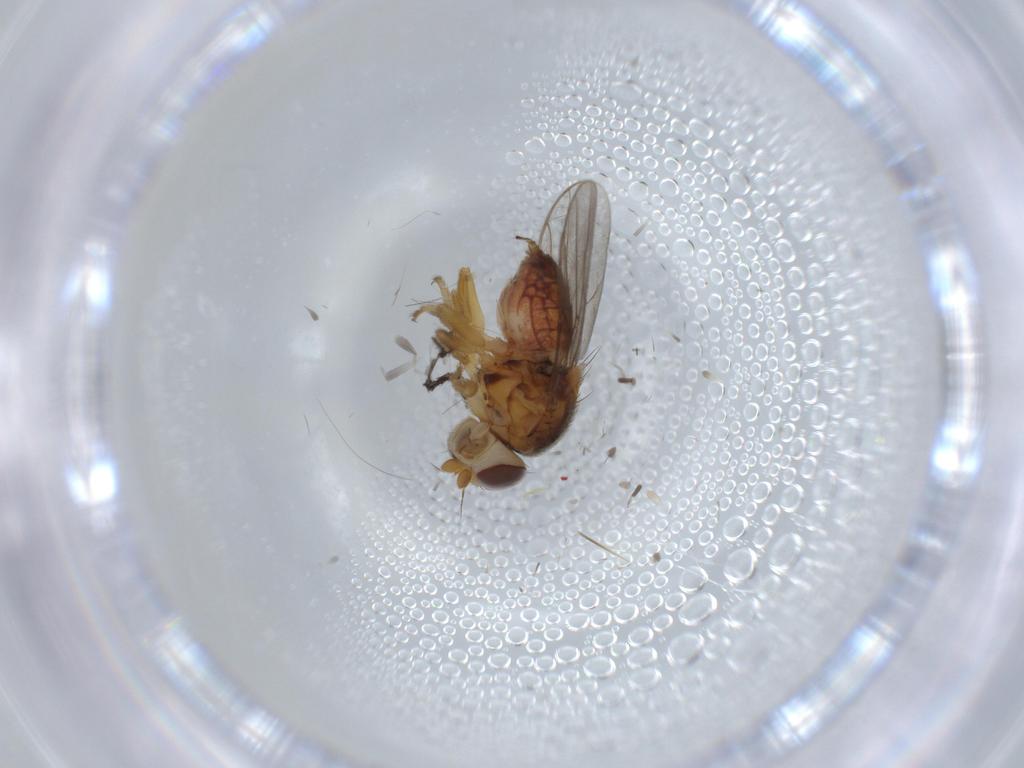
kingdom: Animalia
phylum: Arthropoda
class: Insecta
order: Diptera
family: Chloropidae
